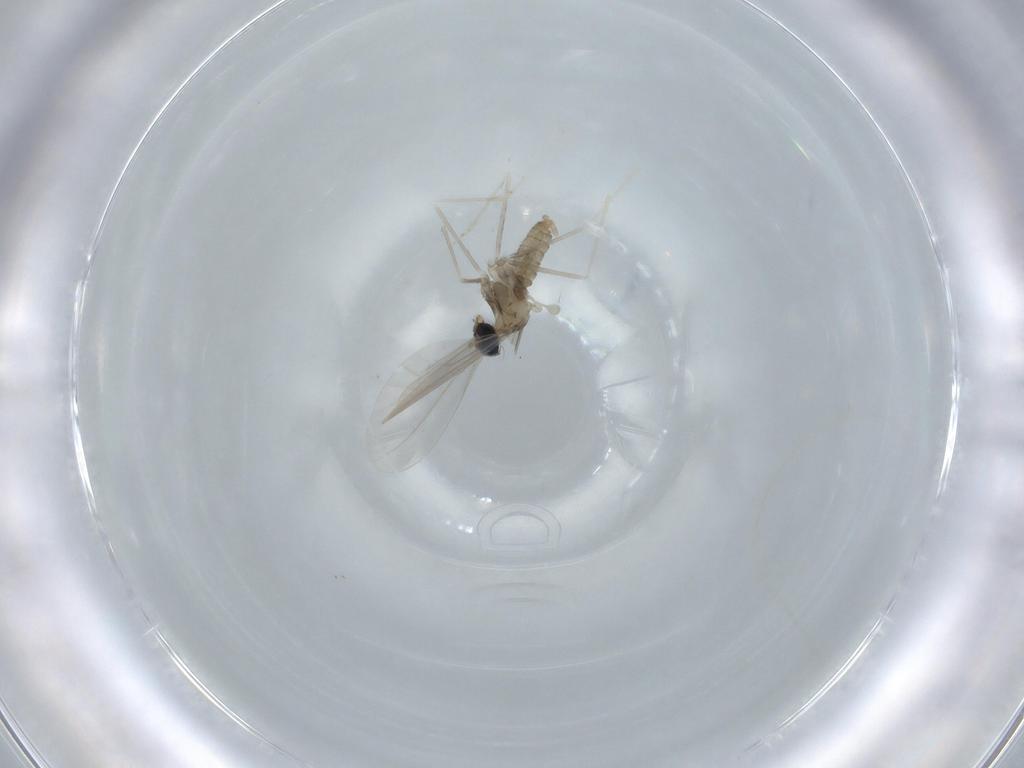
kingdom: Animalia
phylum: Arthropoda
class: Insecta
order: Diptera
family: Cecidomyiidae
